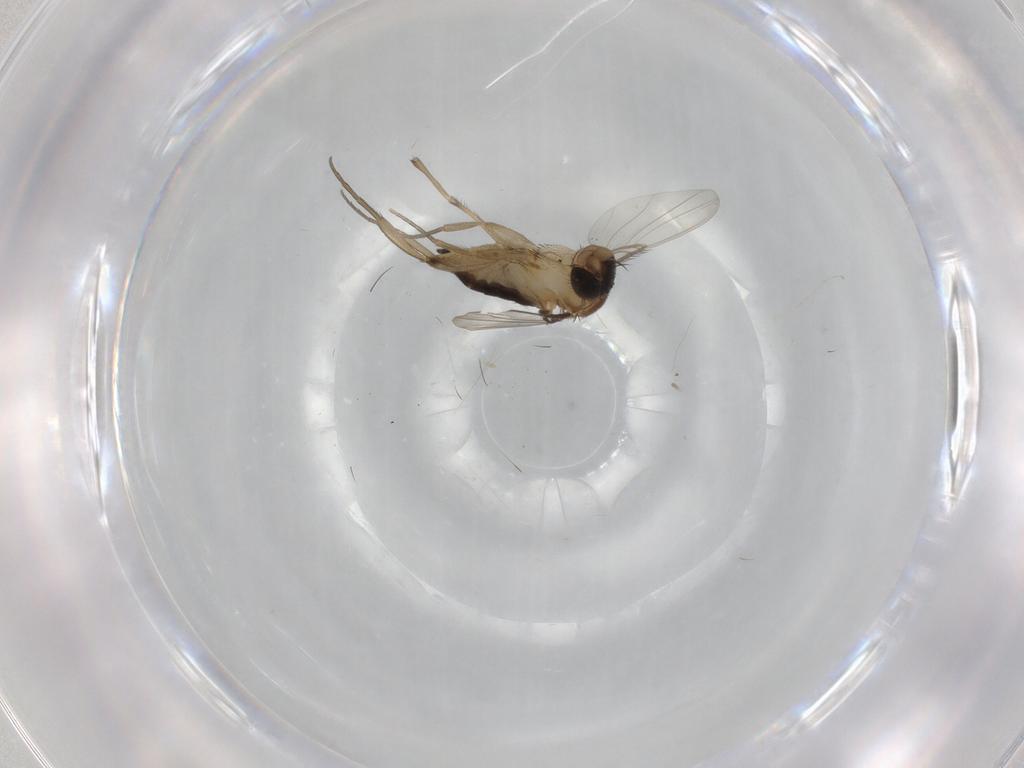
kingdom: Animalia
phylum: Arthropoda
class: Insecta
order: Diptera
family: Phoridae
